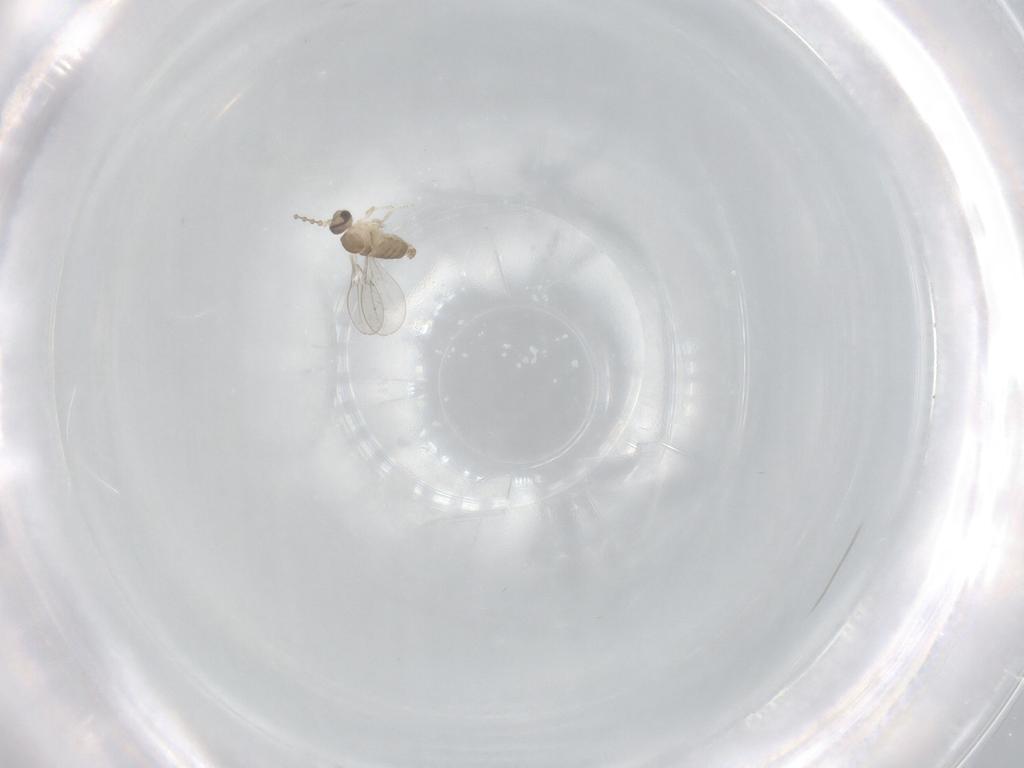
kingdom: Animalia
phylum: Arthropoda
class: Insecta
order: Diptera
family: Cecidomyiidae
